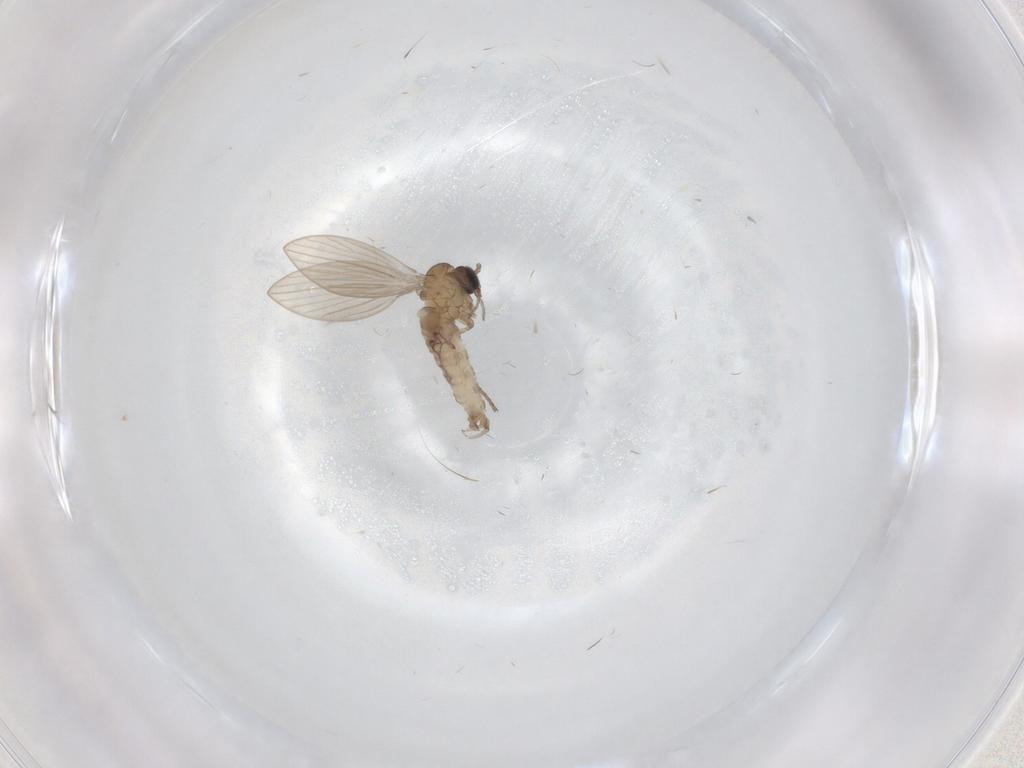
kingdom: Animalia
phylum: Arthropoda
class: Insecta
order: Diptera
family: Psychodidae
